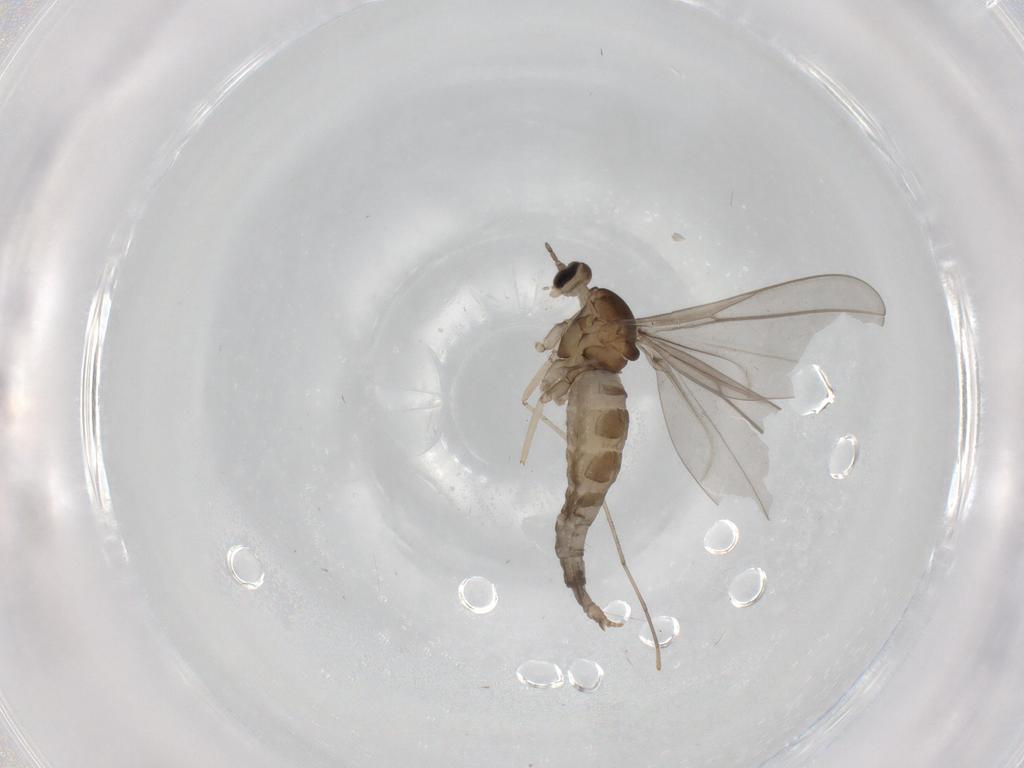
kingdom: Animalia
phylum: Arthropoda
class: Insecta
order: Diptera
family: Cecidomyiidae
